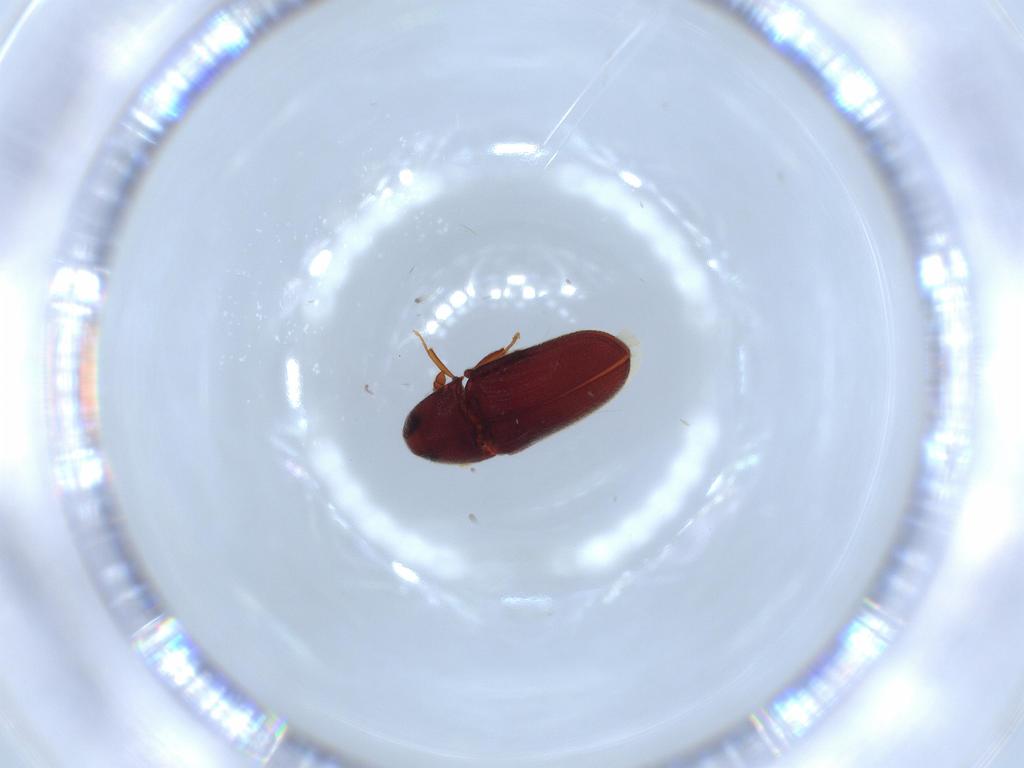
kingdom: Animalia
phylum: Arthropoda
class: Insecta
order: Coleoptera
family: Throscidae
